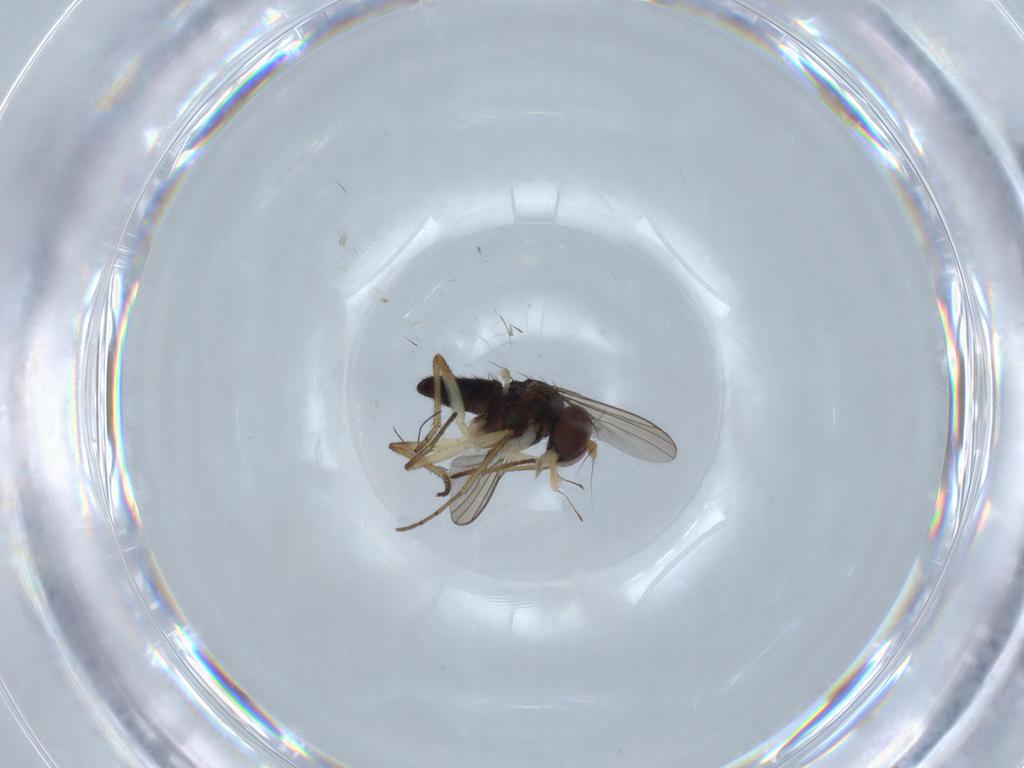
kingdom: Animalia
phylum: Arthropoda
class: Insecta
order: Diptera
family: Dolichopodidae
